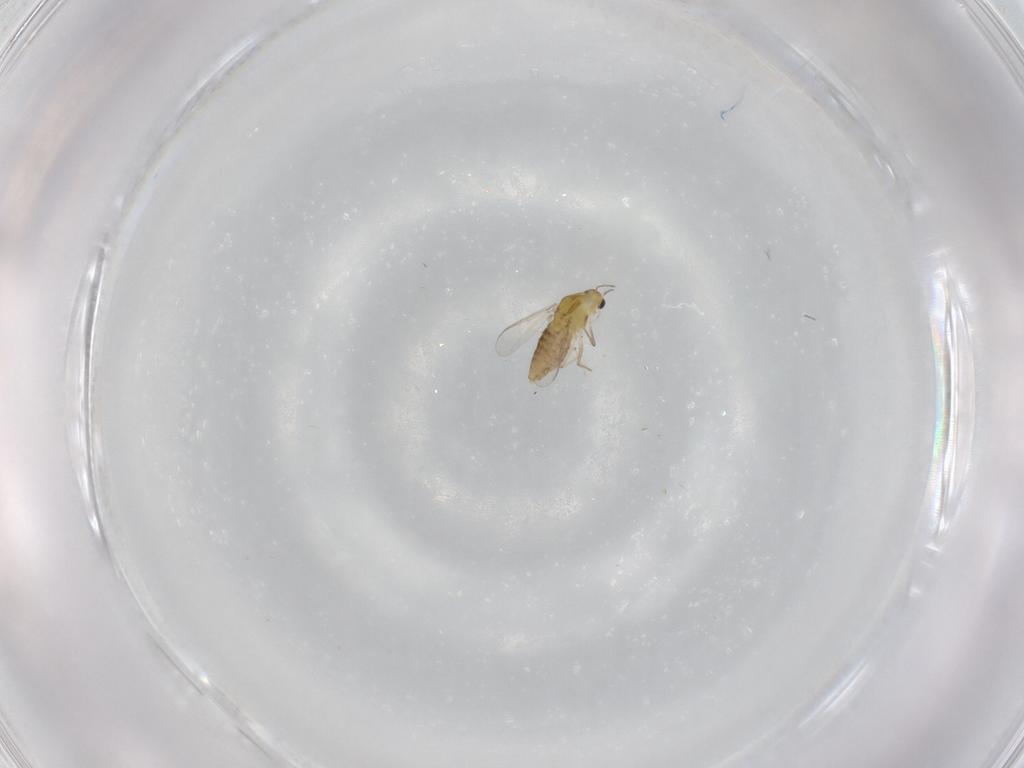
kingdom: Animalia
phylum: Arthropoda
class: Insecta
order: Diptera
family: Chironomidae
